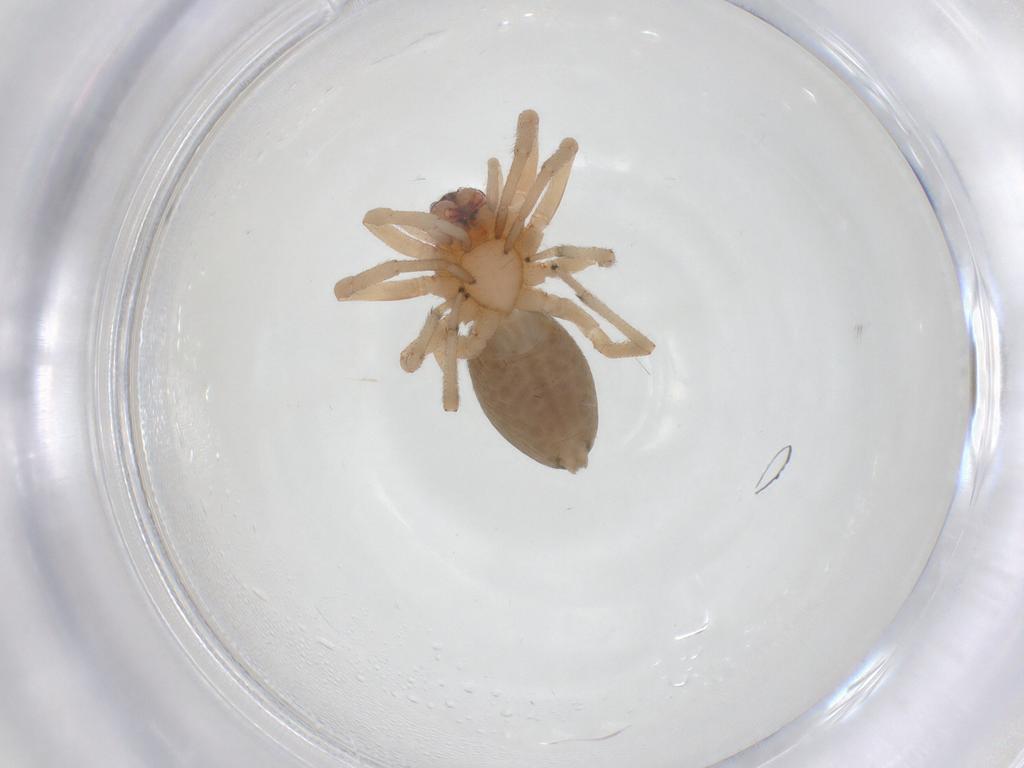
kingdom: Animalia
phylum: Arthropoda
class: Arachnida
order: Araneae
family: Trachelidae
